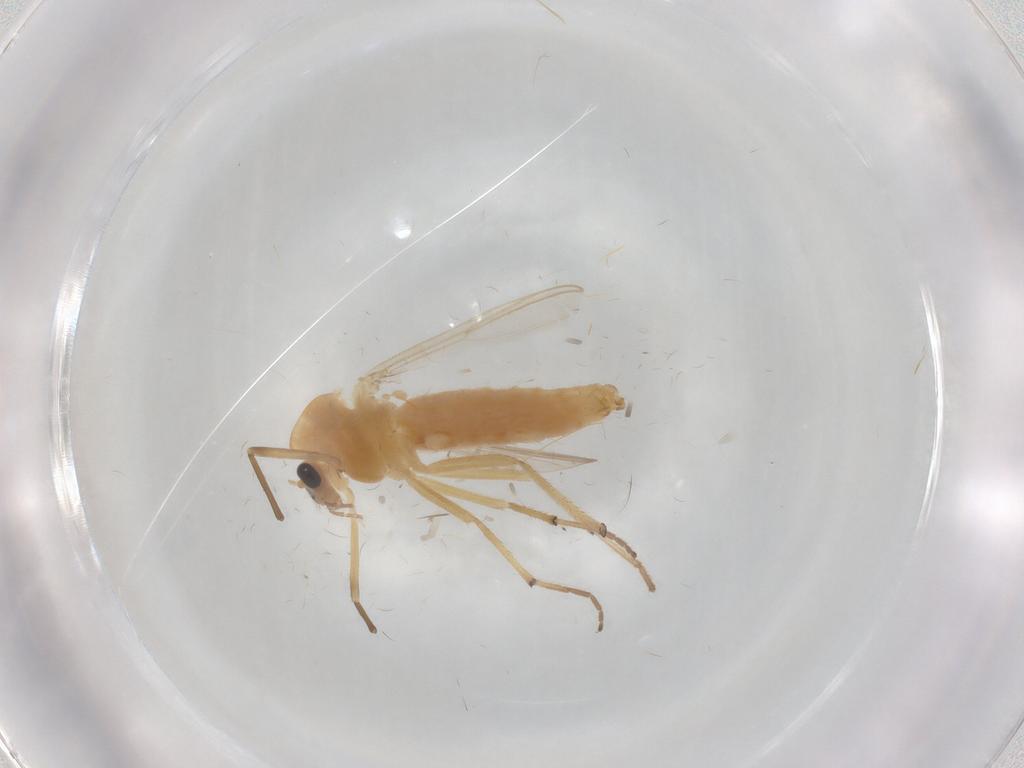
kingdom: Animalia
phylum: Arthropoda
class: Insecta
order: Diptera
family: Chironomidae
